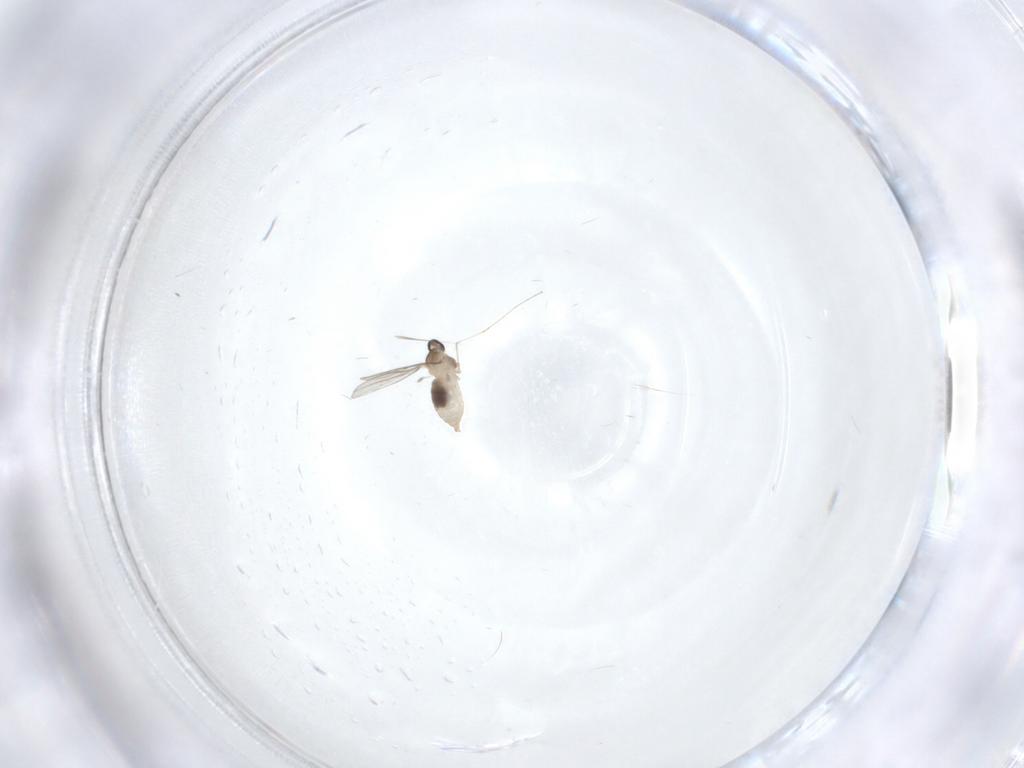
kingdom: Animalia
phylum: Arthropoda
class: Insecta
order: Diptera
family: Cecidomyiidae
